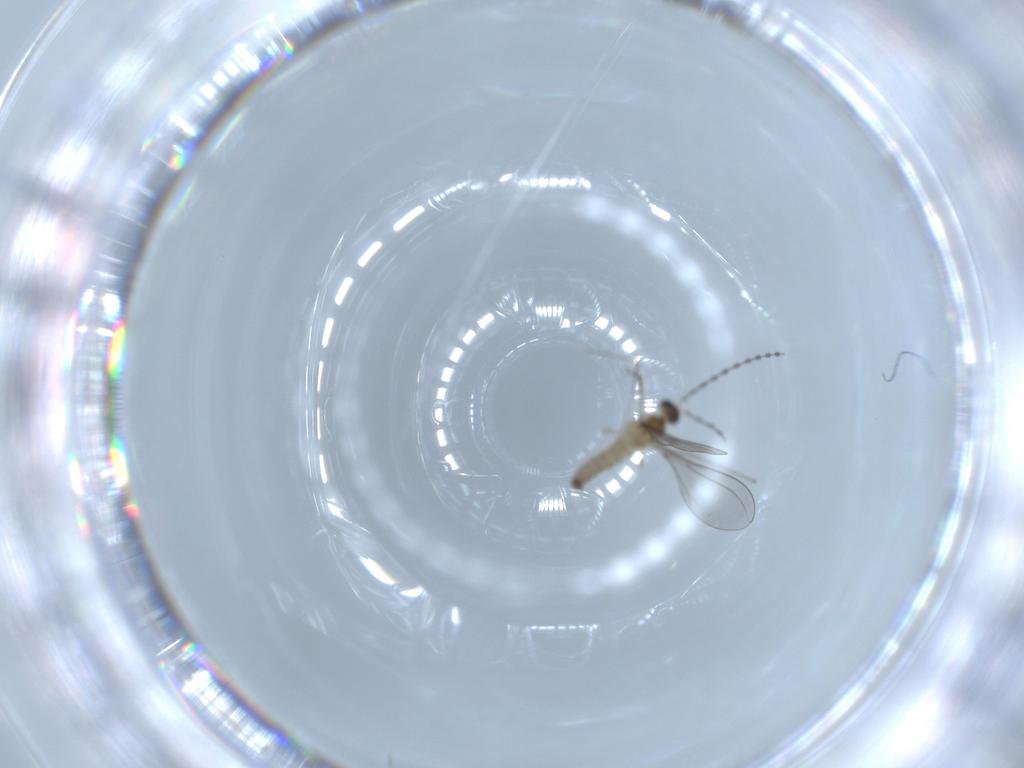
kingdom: Animalia
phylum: Arthropoda
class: Insecta
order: Diptera
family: Cecidomyiidae
